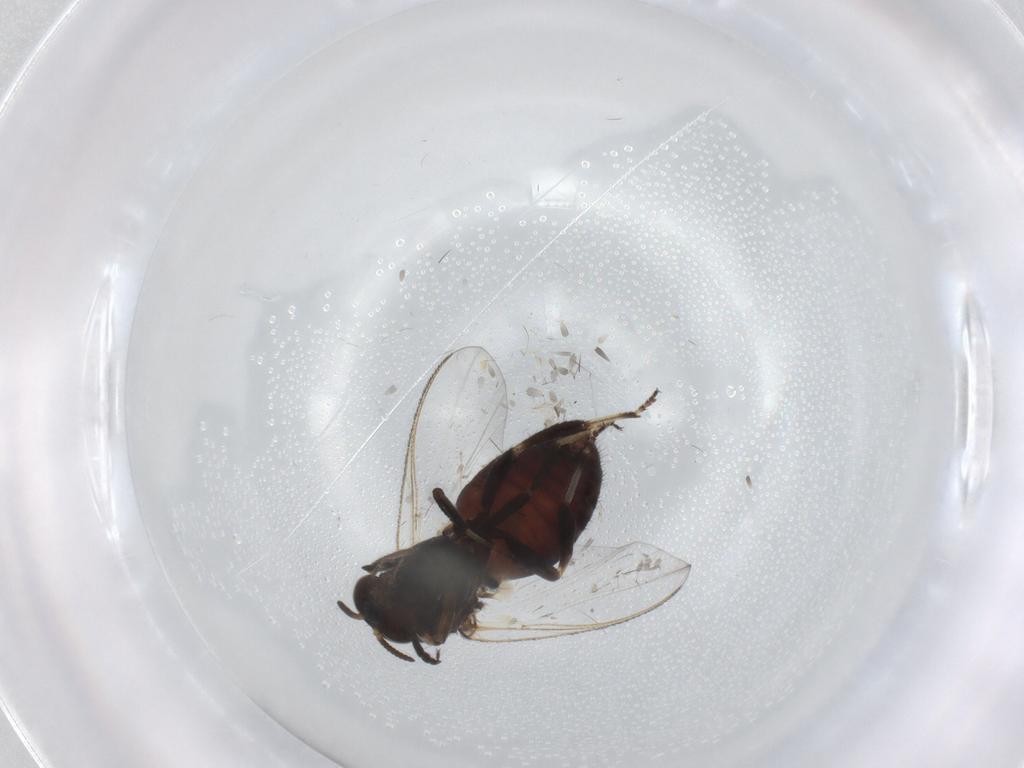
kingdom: Animalia
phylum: Arthropoda
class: Insecta
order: Diptera
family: Simuliidae
